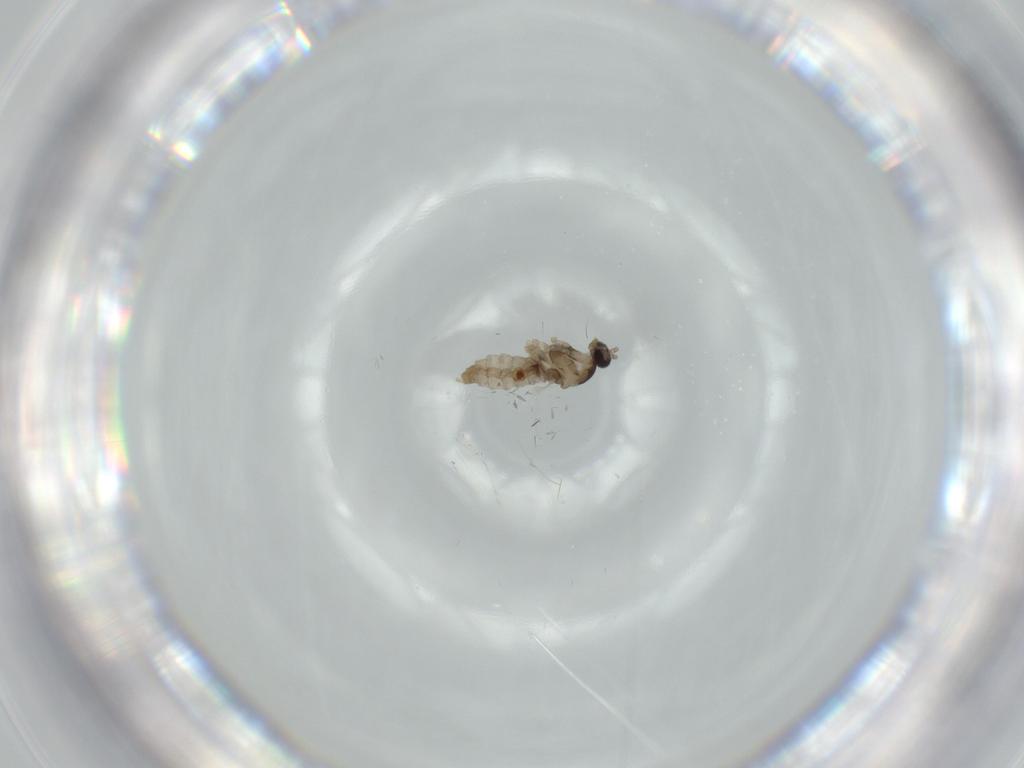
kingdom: Animalia
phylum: Arthropoda
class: Insecta
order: Diptera
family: Cecidomyiidae
